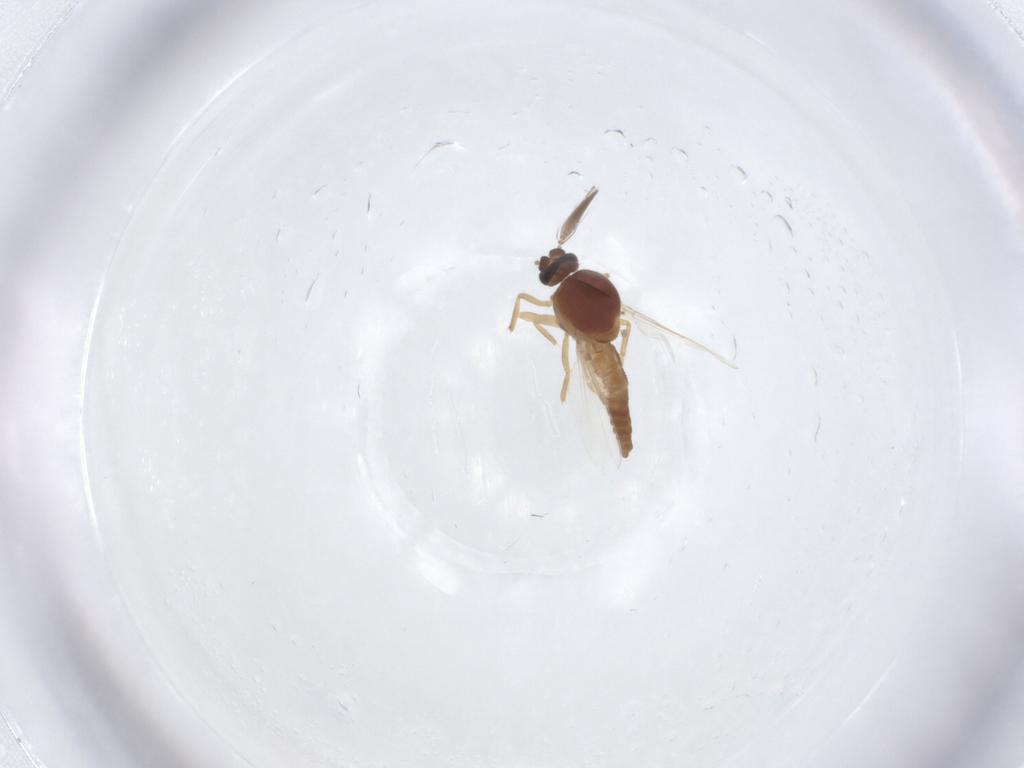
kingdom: Animalia
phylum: Arthropoda
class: Insecta
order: Diptera
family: Ceratopogonidae
